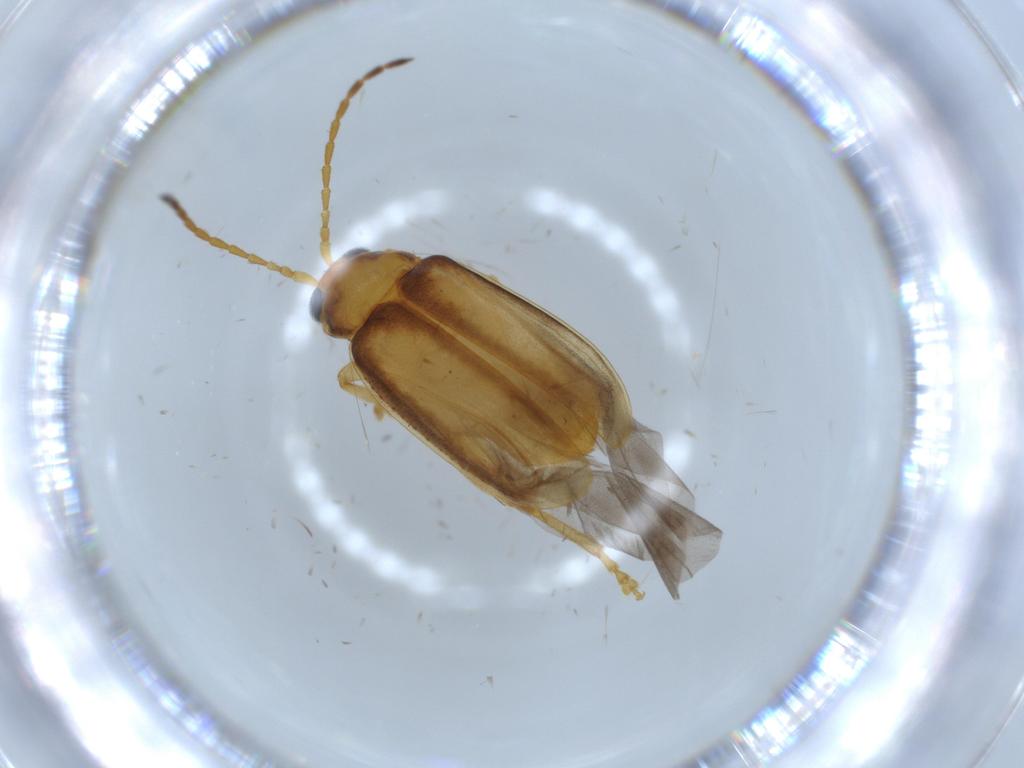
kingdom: Animalia
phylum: Arthropoda
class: Insecta
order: Coleoptera
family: Chrysomelidae
